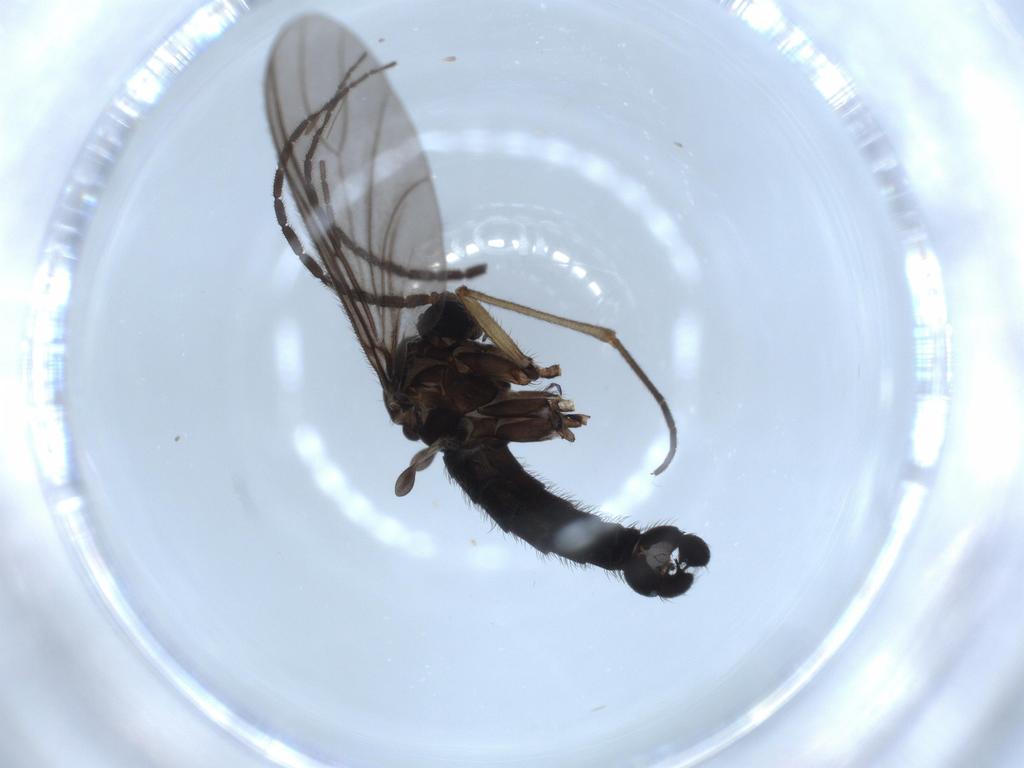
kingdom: Animalia
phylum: Arthropoda
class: Insecta
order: Diptera
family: Sciaridae
